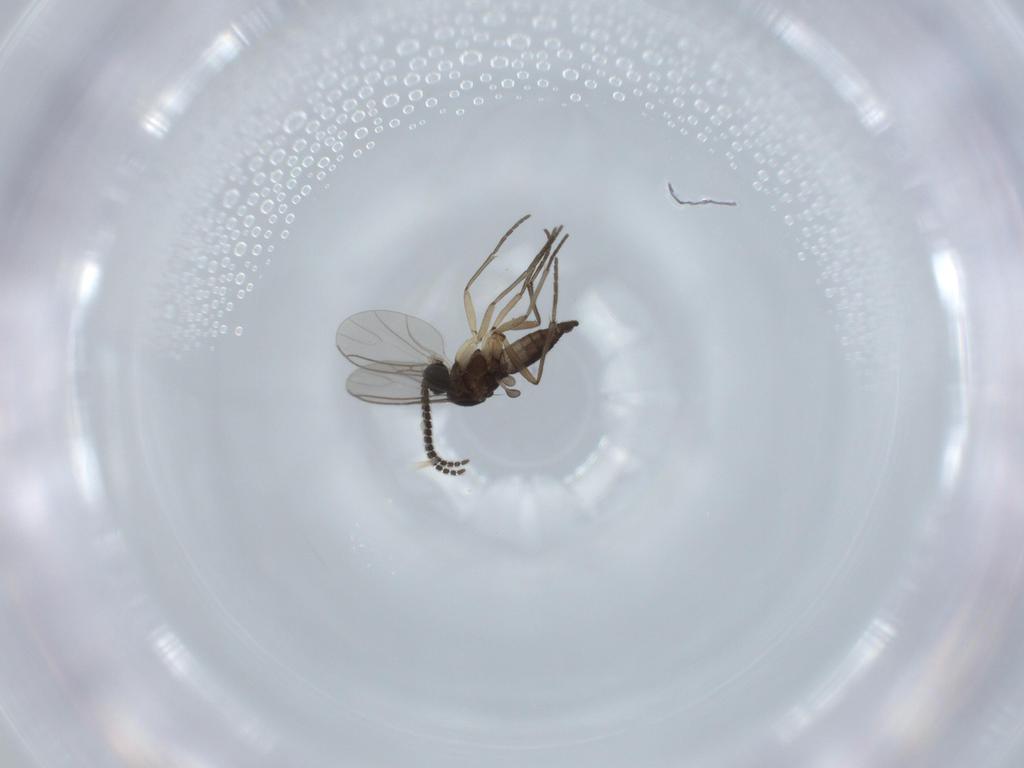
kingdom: Animalia
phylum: Arthropoda
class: Insecta
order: Diptera
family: Sciaridae
